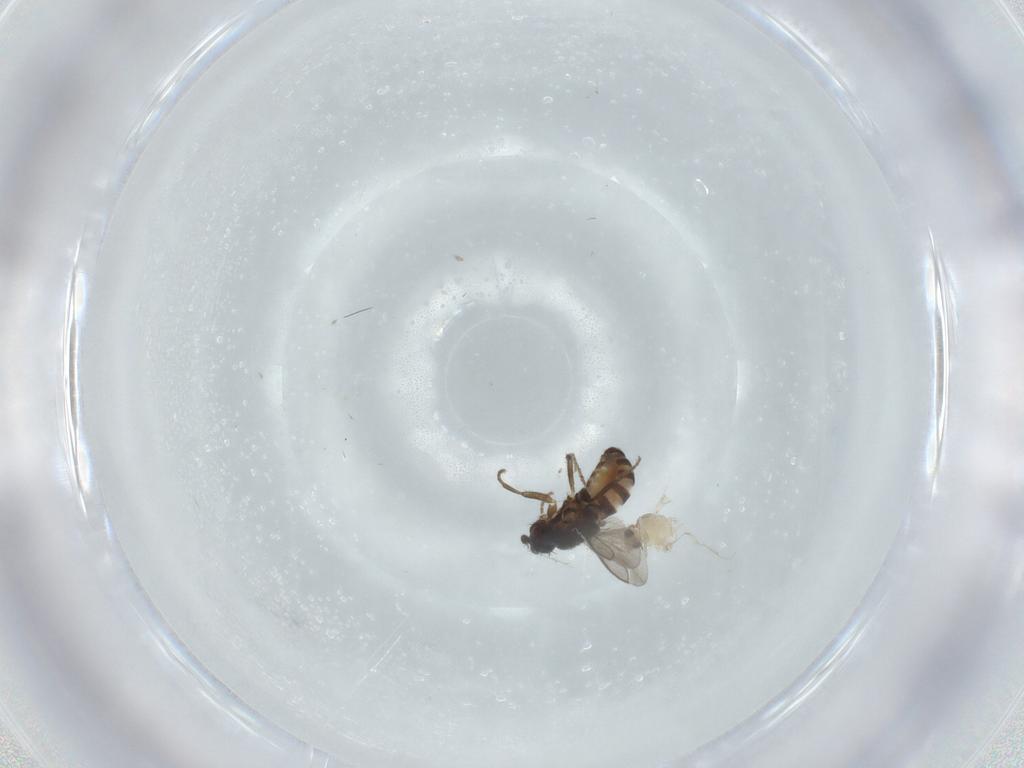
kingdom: Animalia
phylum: Arthropoda
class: Insecta
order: Diptera
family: Cecidomyiidae
